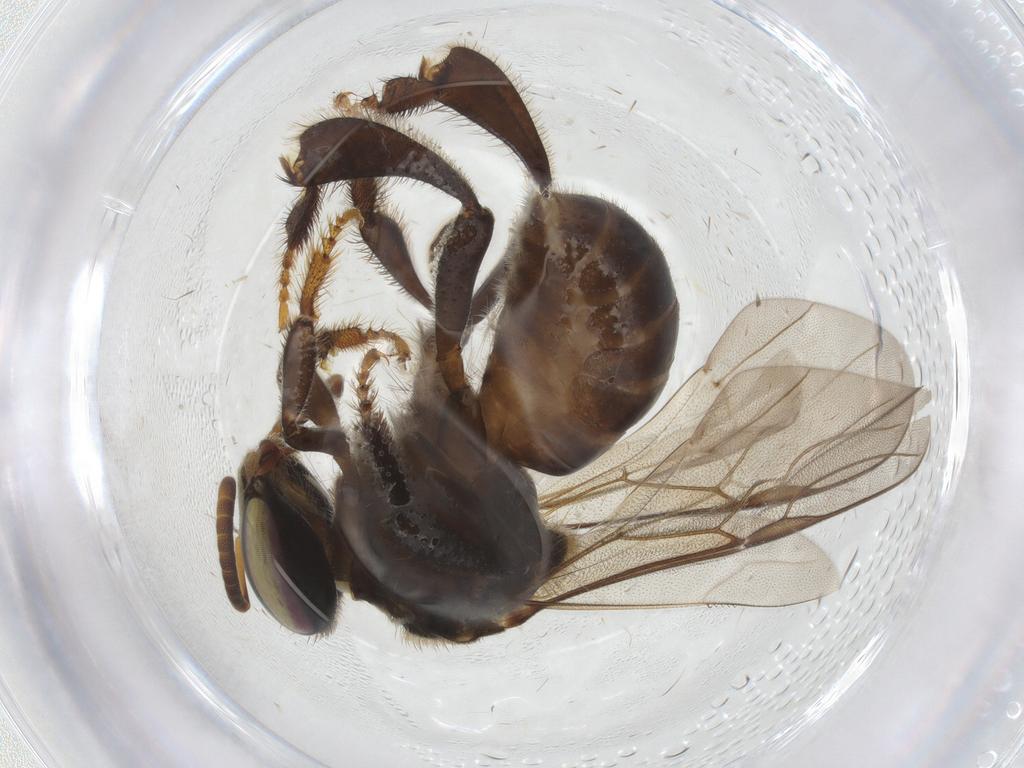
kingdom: Animalia
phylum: Arthropoda
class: Insecta
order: Hymenoptera
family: Apidae
